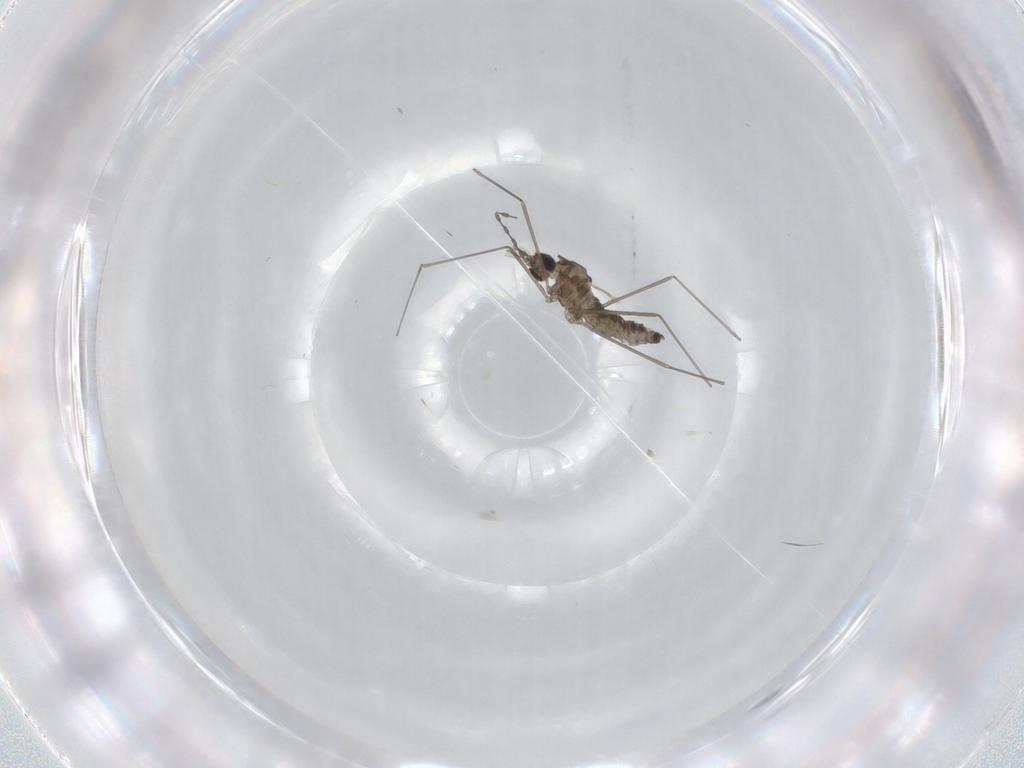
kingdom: Animalia
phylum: Arthropoda
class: Insecta
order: Diptera
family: Cecidomyiidae
